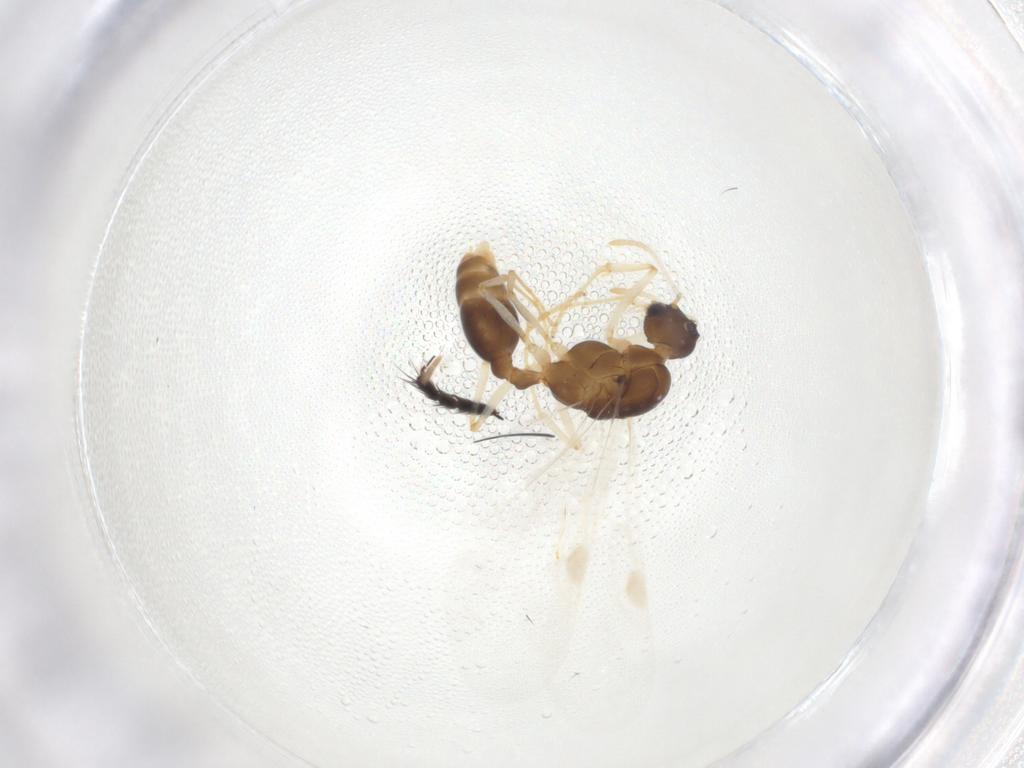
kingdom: Animalia
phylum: Arthropoda
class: Insecta
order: Hymenoptera
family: Formicidae
